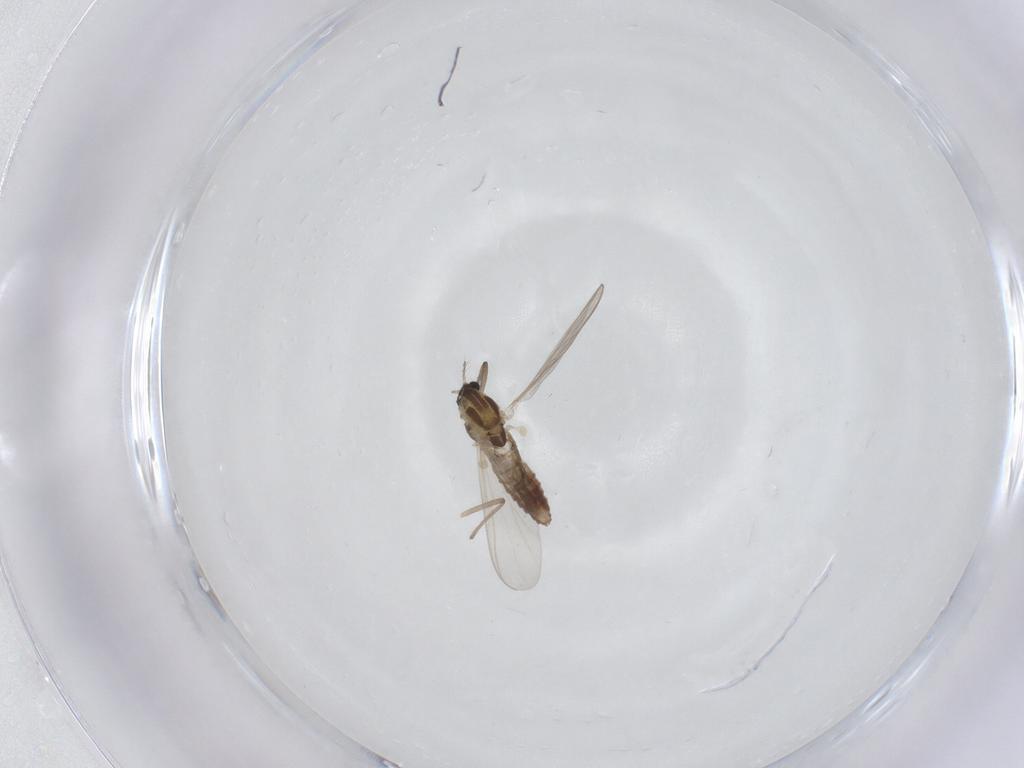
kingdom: Animalia
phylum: Arthropoda
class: Insecta
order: Diptera
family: Chironomidae
